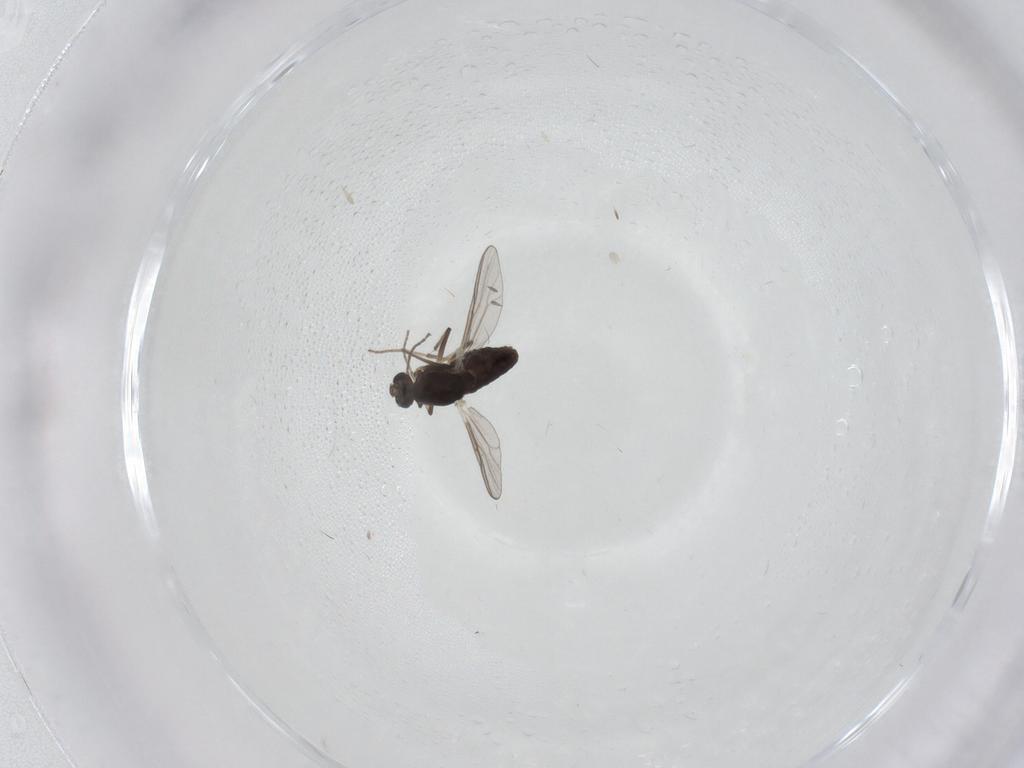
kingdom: Animalia
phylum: Arthropoda
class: Insecta
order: Diptera
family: Chironomidae
